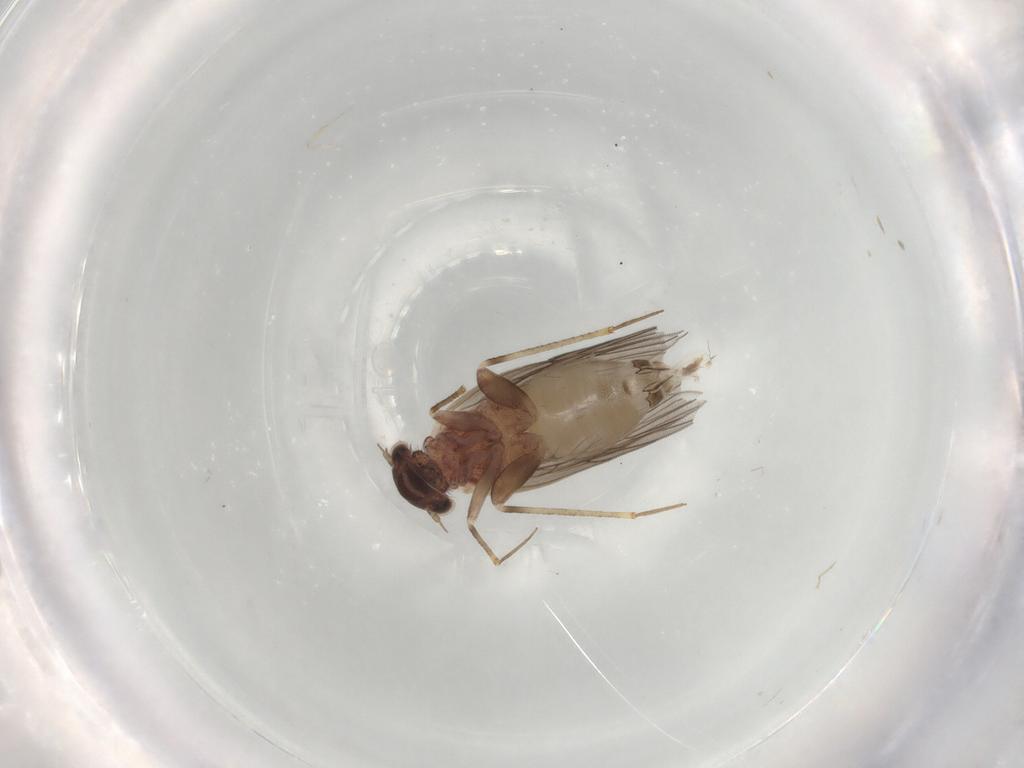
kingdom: Animalia
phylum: Arthropoda
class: Insecta
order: Psocodea
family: Lepidopsocidae
